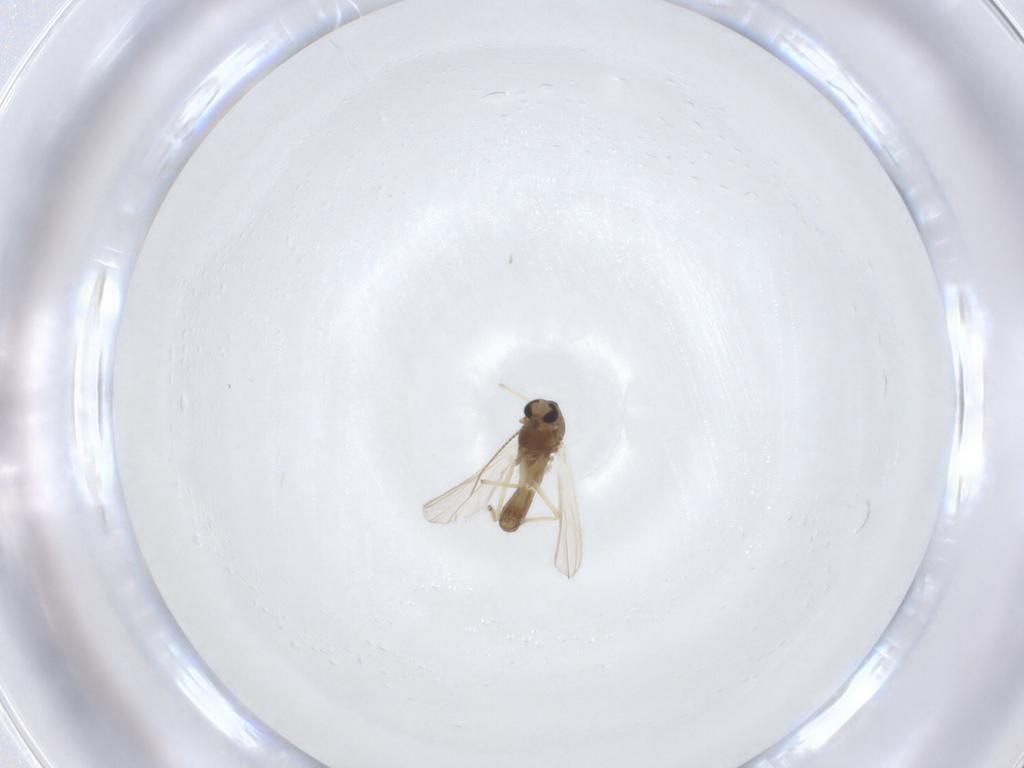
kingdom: Animalia
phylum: Arthropoda
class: Insecta
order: Diptera
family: Chironomidae
